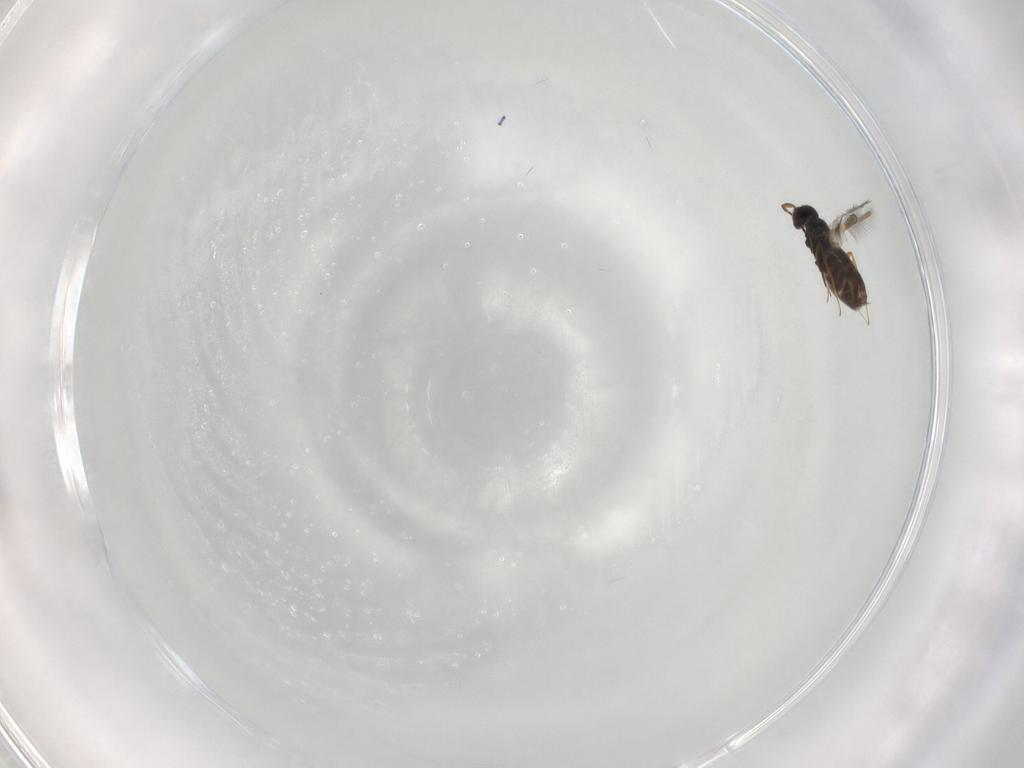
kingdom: Animalia
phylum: Arthropoda
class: Insecta
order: Hymenoptera
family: Mymaridae
